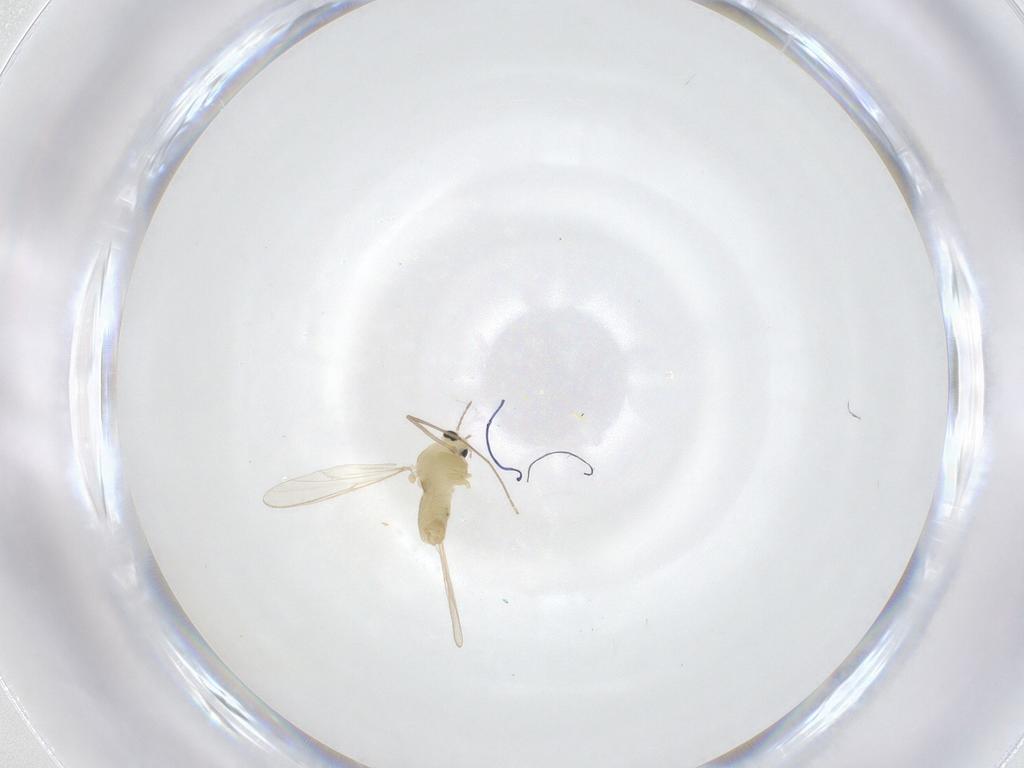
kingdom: Animalia
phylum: Arthropoda
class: Insecta
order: Diptera
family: Chironomidae
